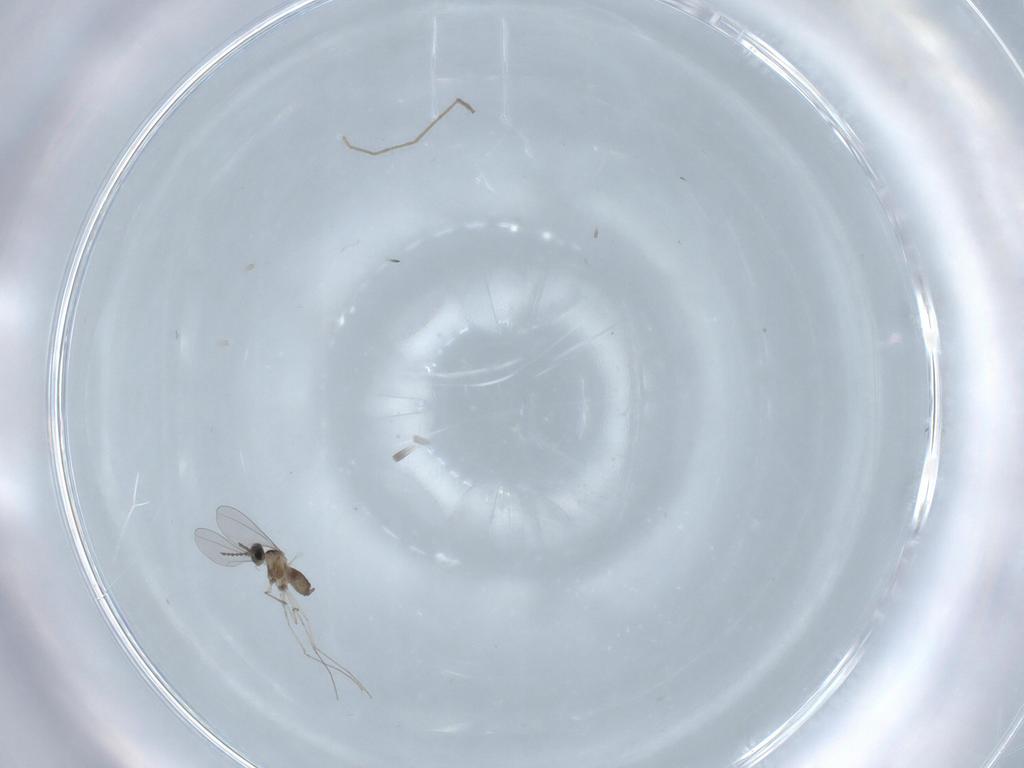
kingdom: Animalia
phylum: Arthropoda
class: Insecta
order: Diptera
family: Cecidomyiidae
